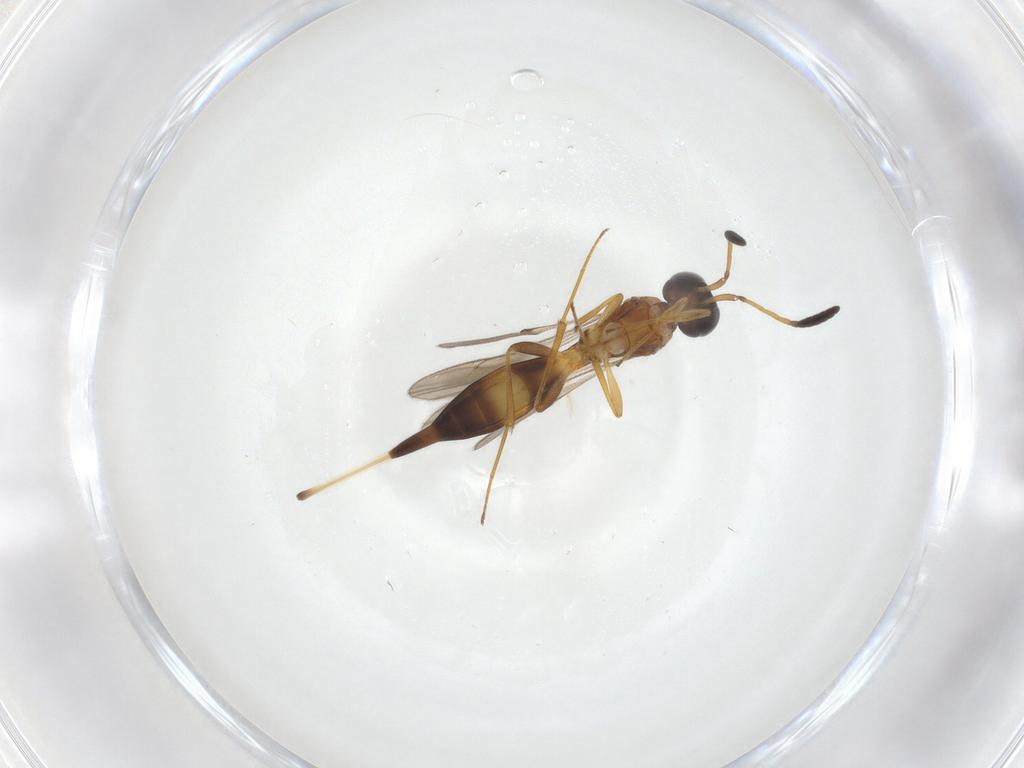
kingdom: Animalia
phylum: Arthropoda
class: Insecta
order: Hymenoptera
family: Scelionidae
